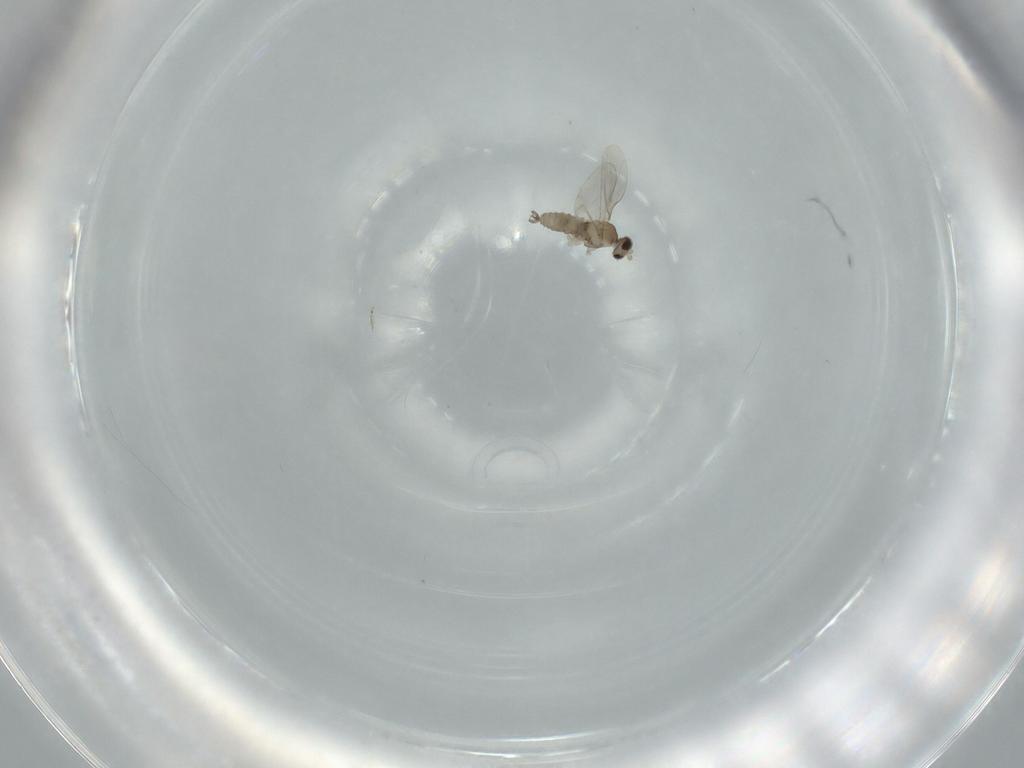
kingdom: Animalia
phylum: Arthropoda
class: Insecta
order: Diptera
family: Cecidomyiidae
